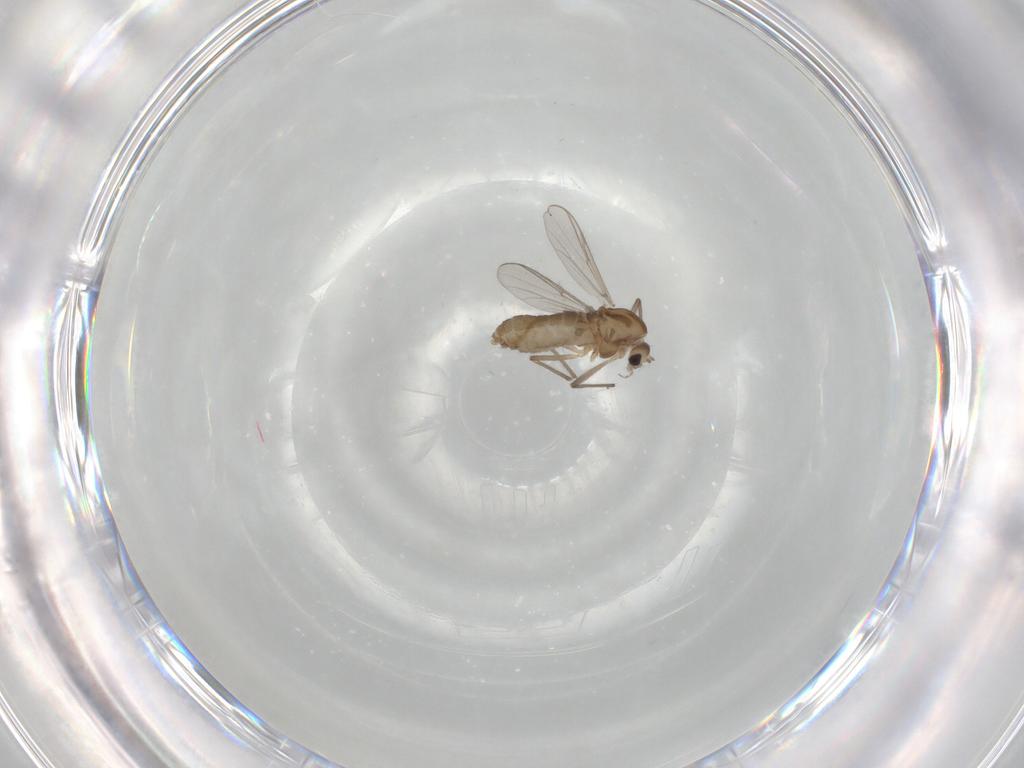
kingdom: Animalia
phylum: Arthropoda
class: Insecta
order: Diptera
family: Chironomidae
